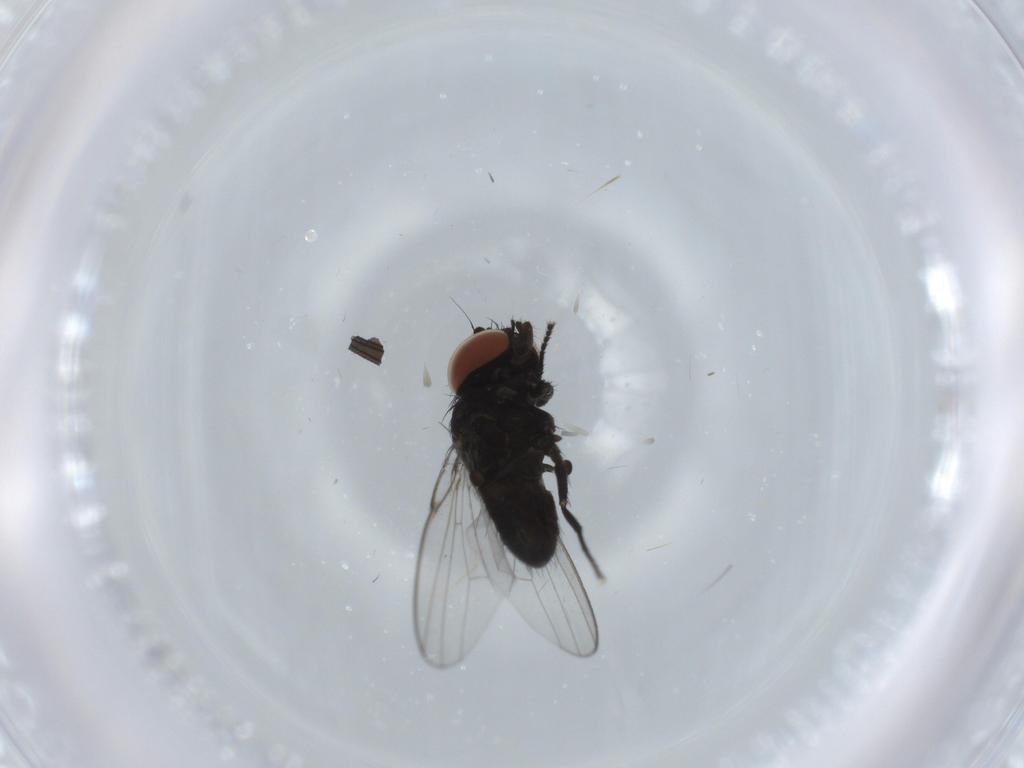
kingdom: Animalia
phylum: Arthropoda
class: Insecta
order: Diptera
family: Milichiidae
